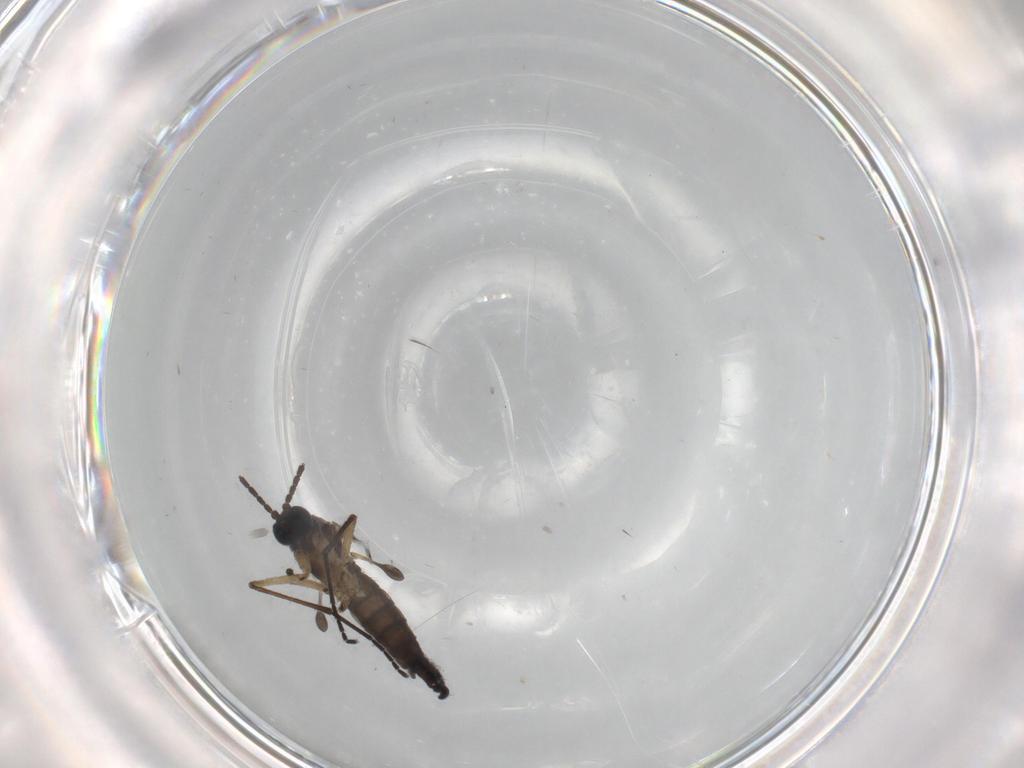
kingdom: Animalia
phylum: Arthropoda
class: Insecta
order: Diptera
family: Sciaridae
